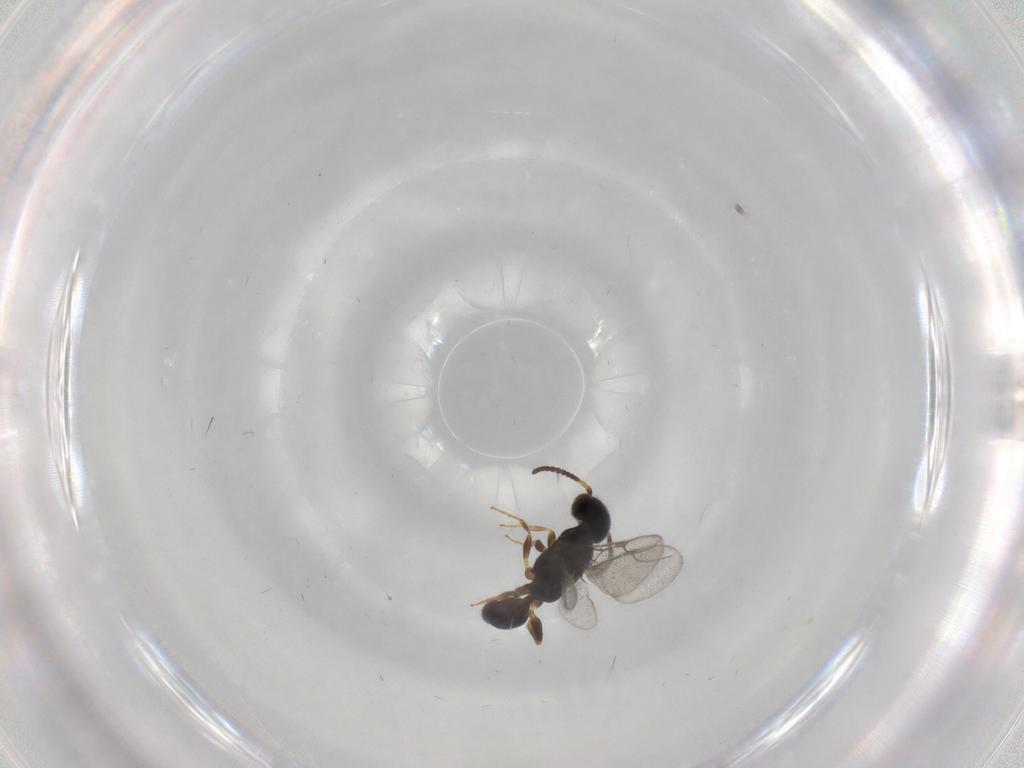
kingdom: Animalia
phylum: Arthropoda
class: Insecta
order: Hymenoptera
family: Bethylidae
